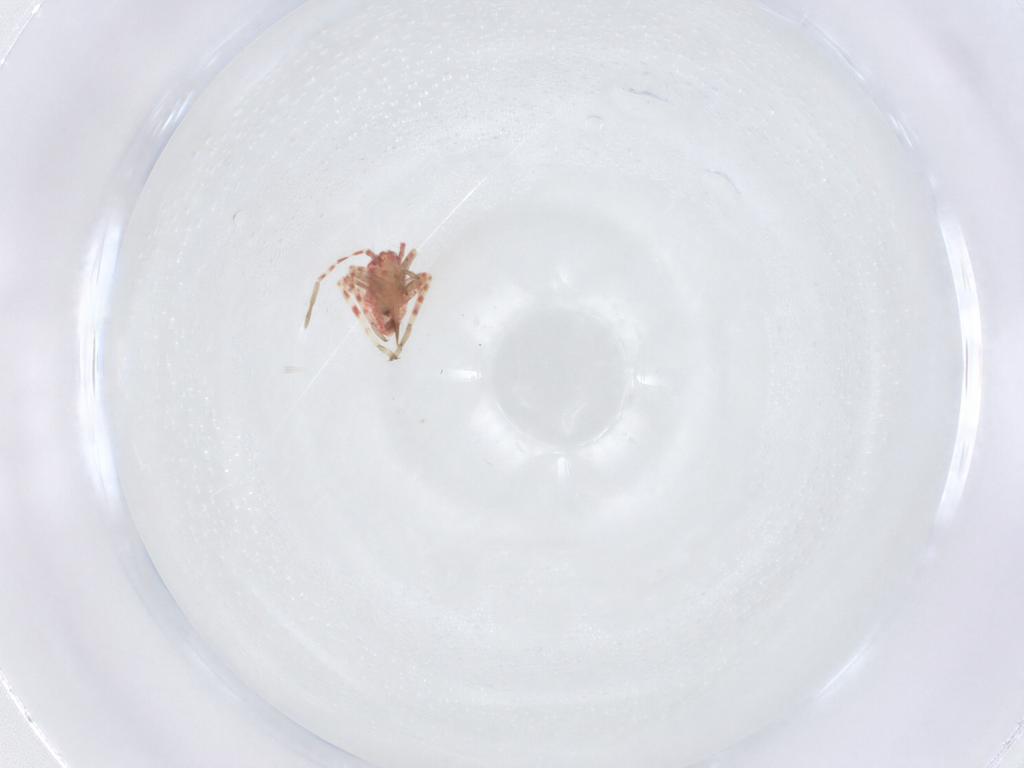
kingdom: Animalia
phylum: Arthropoda
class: Insecta
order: Hemiptera
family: Miridae
